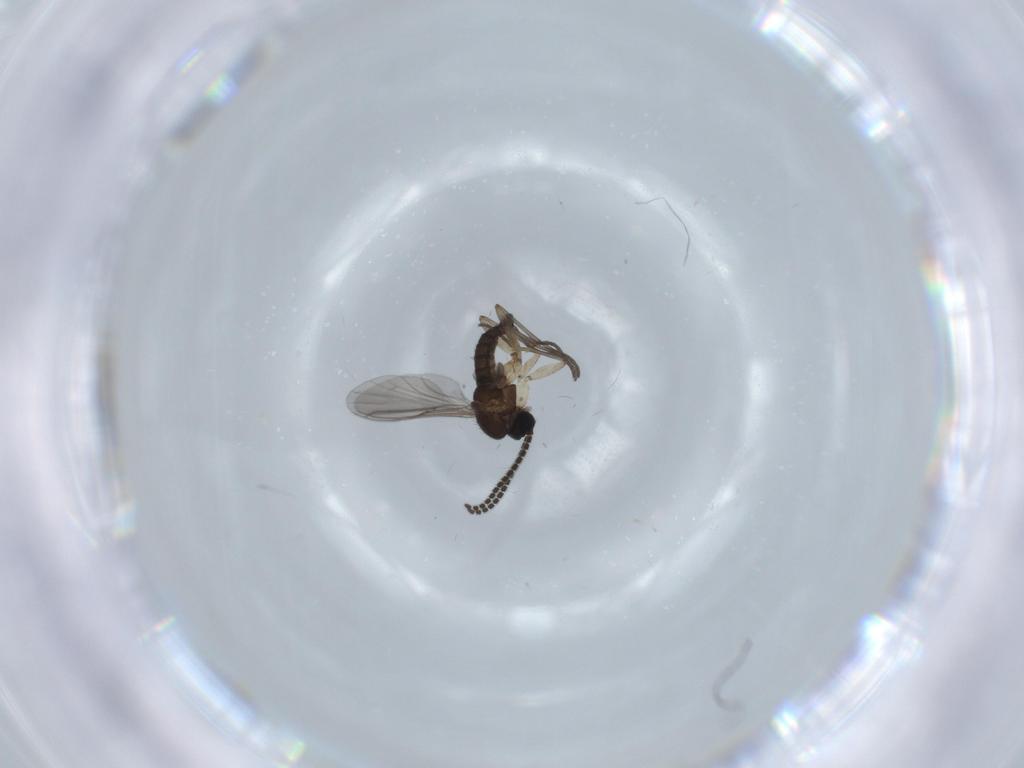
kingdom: Animalia
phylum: Arthropoda
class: Insecta
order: Diptera
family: Sciaridae
